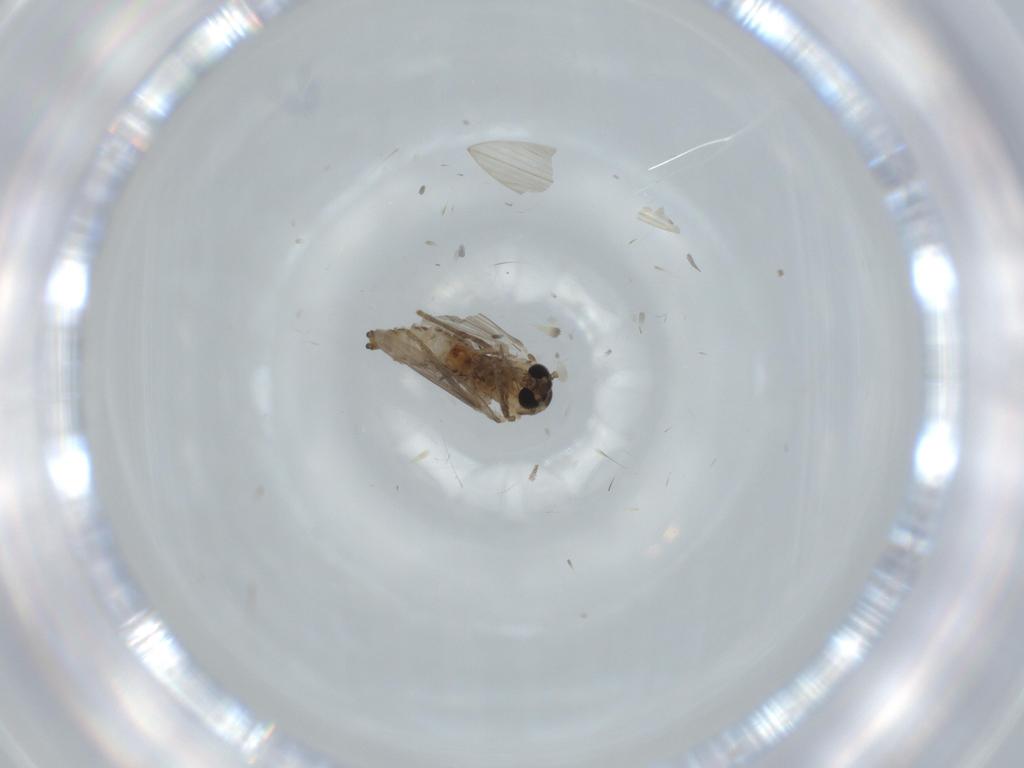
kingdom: Animalia
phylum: Arthropoda
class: Insecta
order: Diptera
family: Psychodidae
